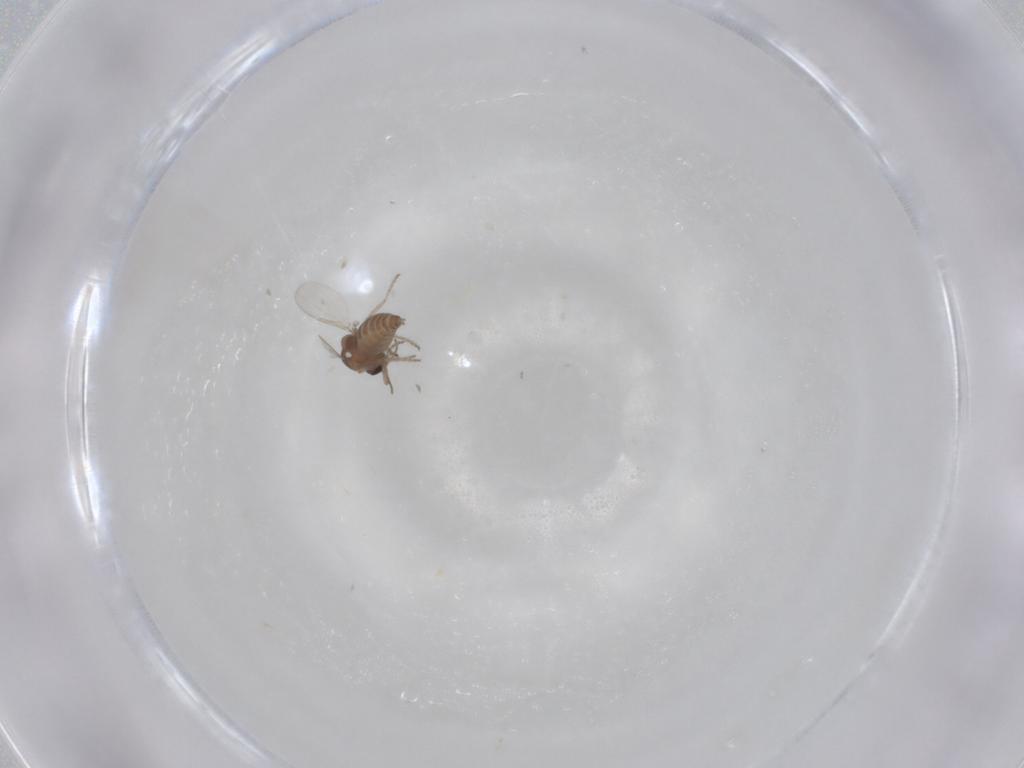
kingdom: Animalia
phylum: Arthropoda
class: Insecta
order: Diptera
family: Ceratopogonidae
